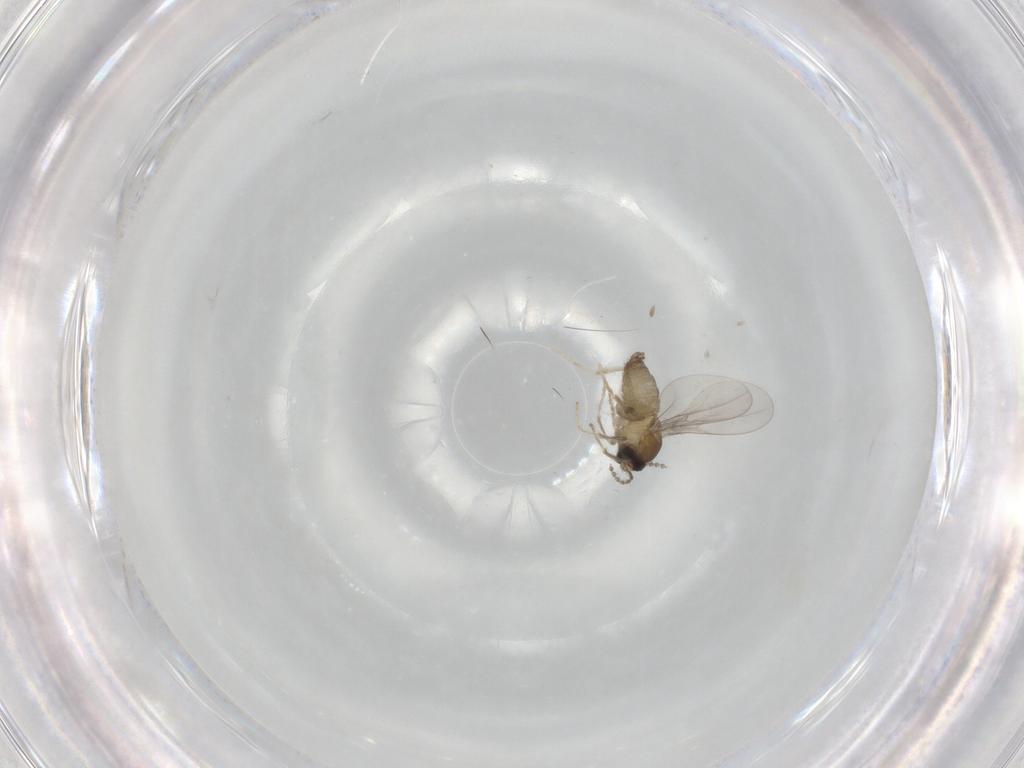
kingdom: Animalia
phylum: Arthropoda
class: Insecta
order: Diptera
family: Cecidomyiidae
